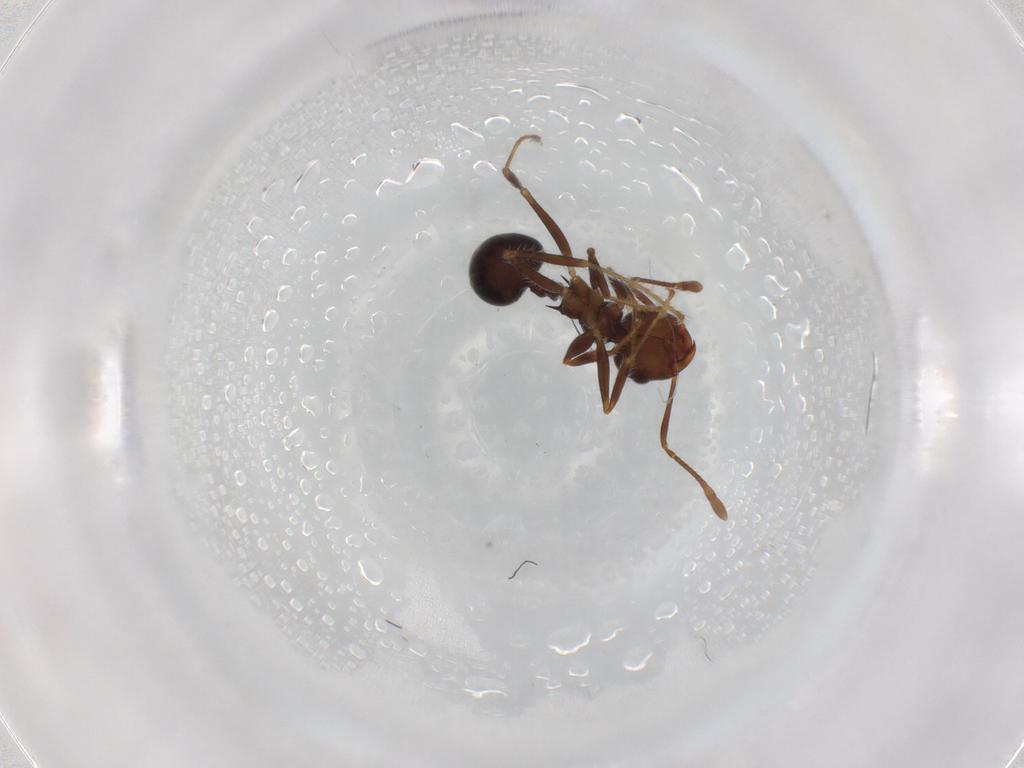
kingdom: Animalia
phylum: Arthropoda
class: Insecta
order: Hymenoptera
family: Formicidae
